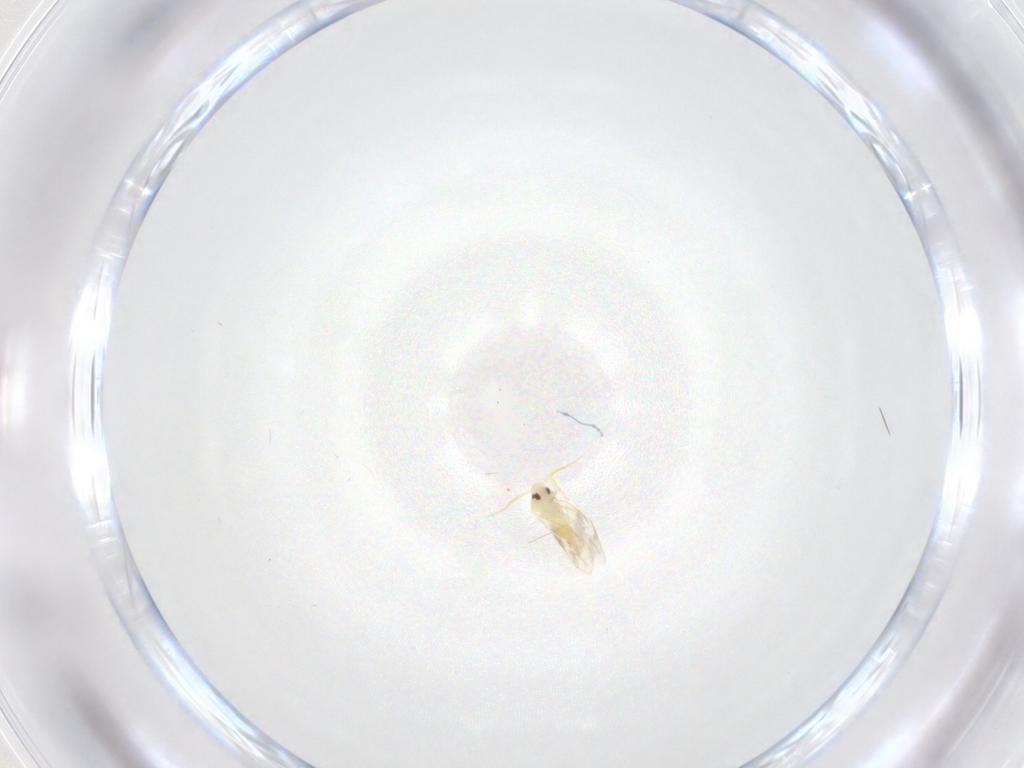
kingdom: Animalia
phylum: Arthropoda
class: Insecta
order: Hemiptera
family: Aleyrodidae
